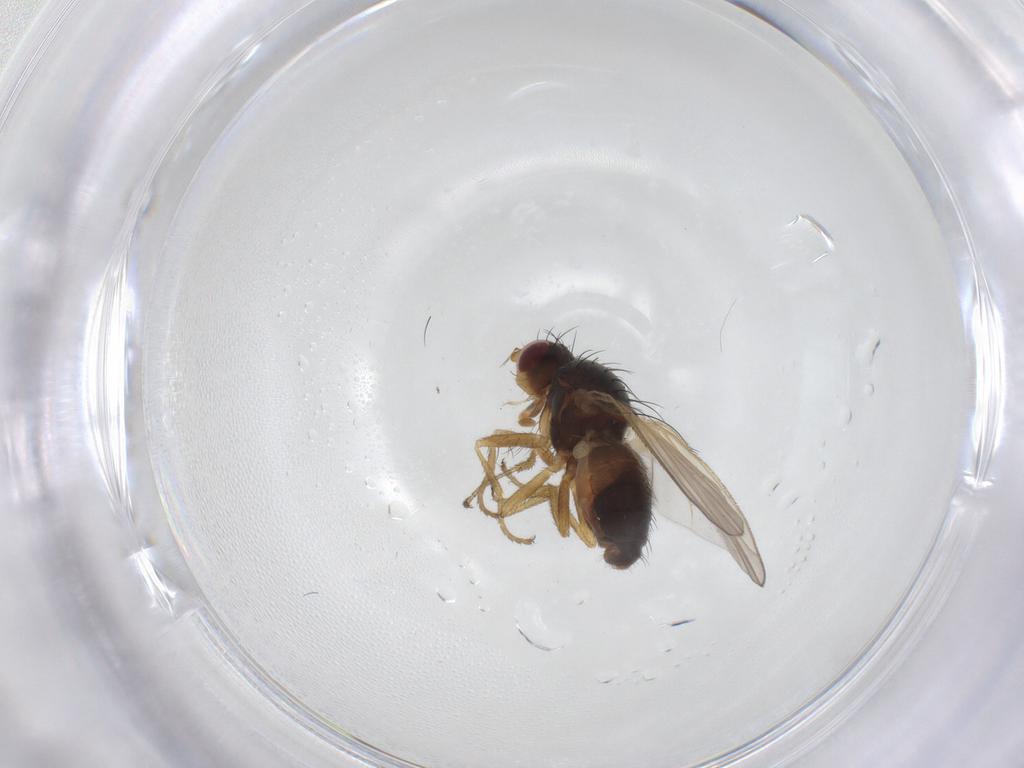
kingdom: Animalia
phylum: Arthropoda
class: Insecta
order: Diptera
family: Heleomyzidae
